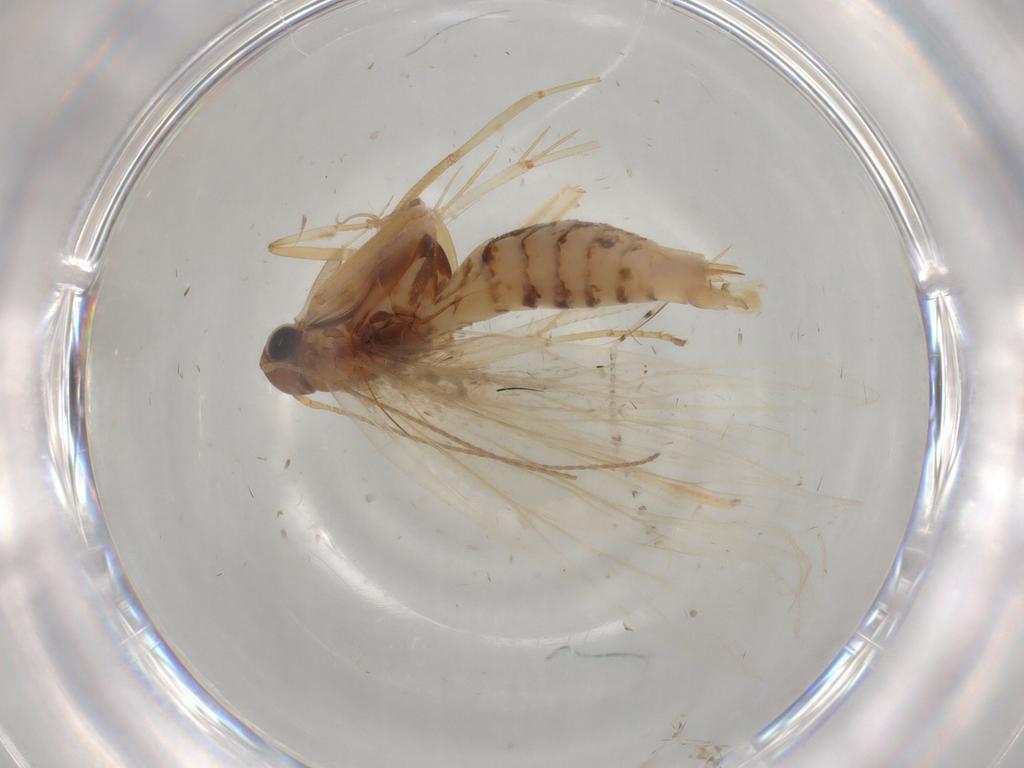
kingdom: Animalia
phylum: Arthropoda
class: Insecta
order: Lepidoptera
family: Gelechiidae
